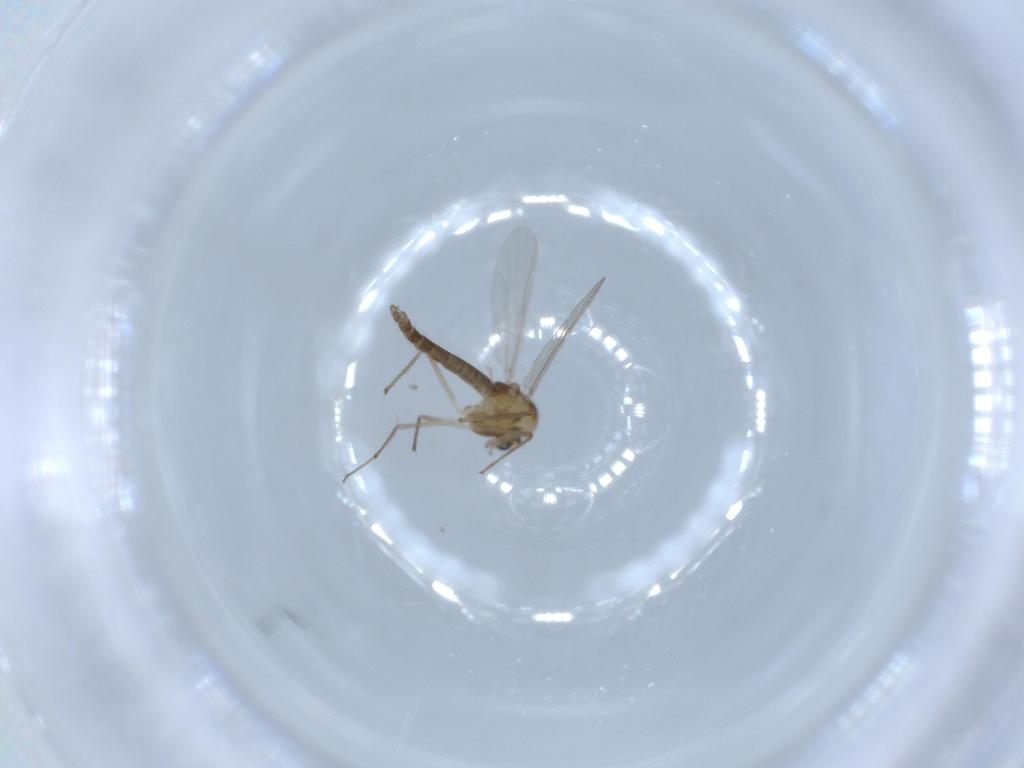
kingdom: Animalia
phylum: Arthropoda
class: Insecta
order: Diptera
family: Chironomidae
